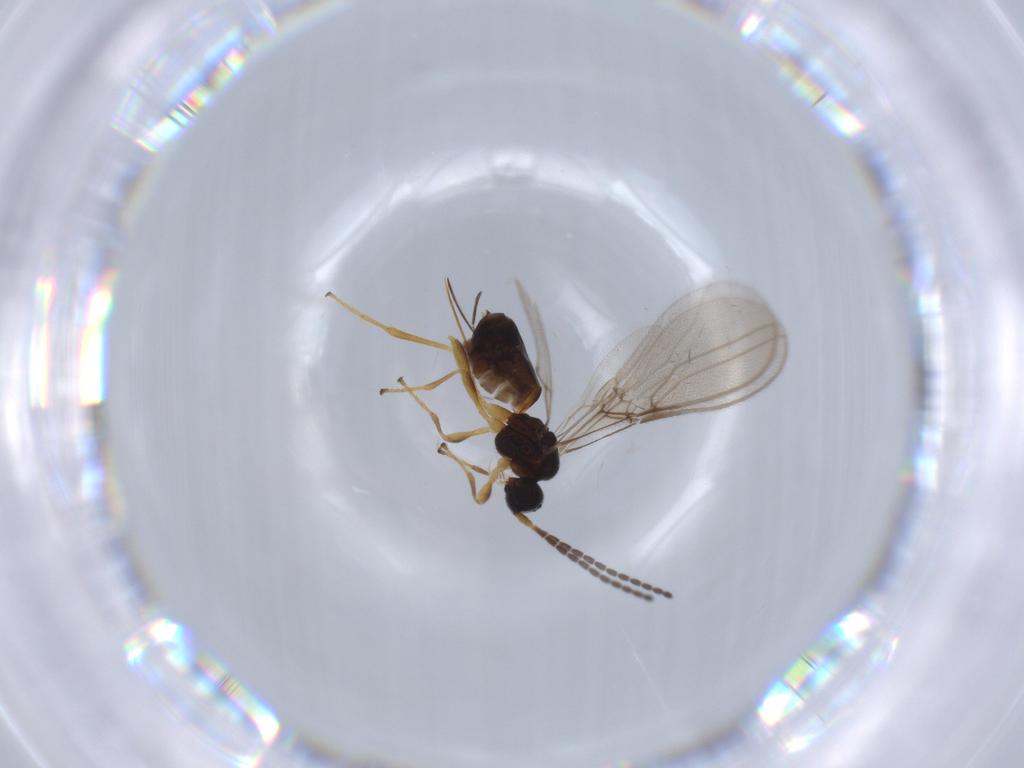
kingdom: Animalia
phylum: Arthropoda
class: Insecta
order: Hymenoptera
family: Braconidae
